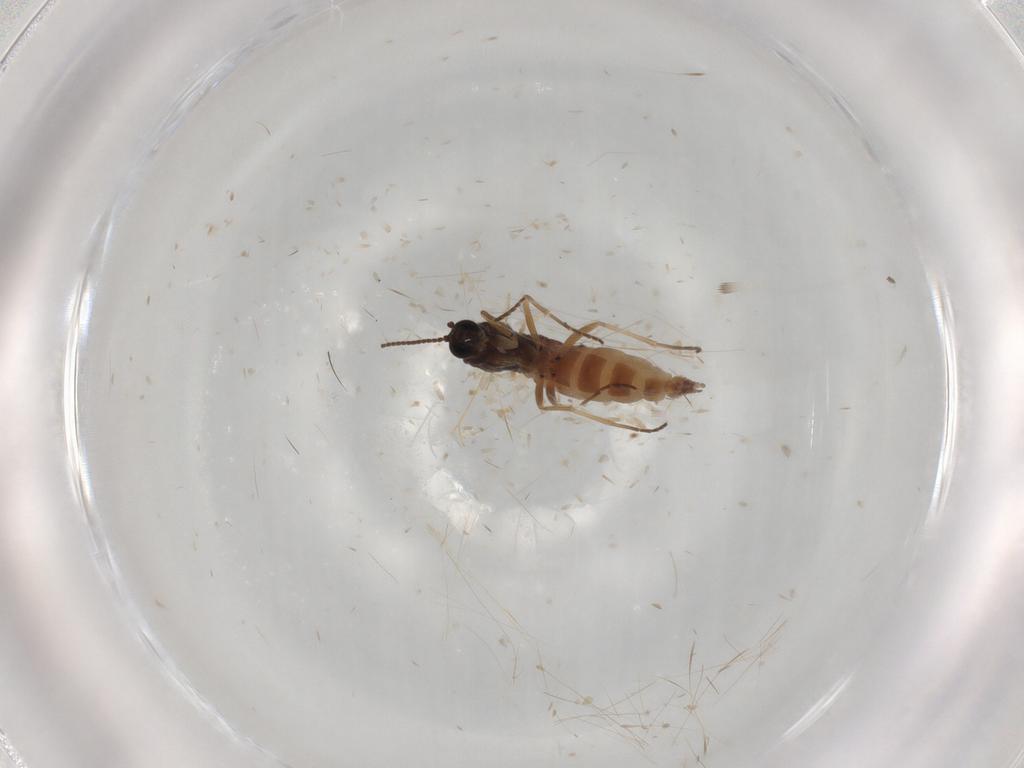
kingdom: Animalia
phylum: Arthropoda
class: Insecta
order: Diptera
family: Sciaridae
